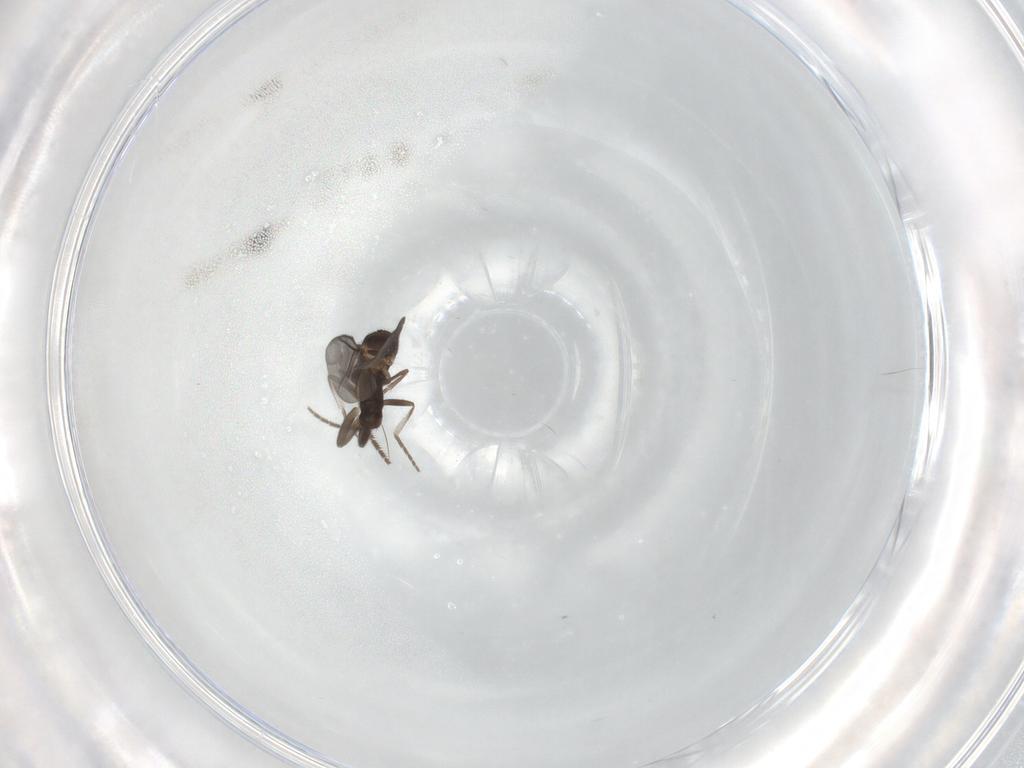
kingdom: Animalia
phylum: Arthropoda
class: Insecta
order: Diptera
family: Phoridae
